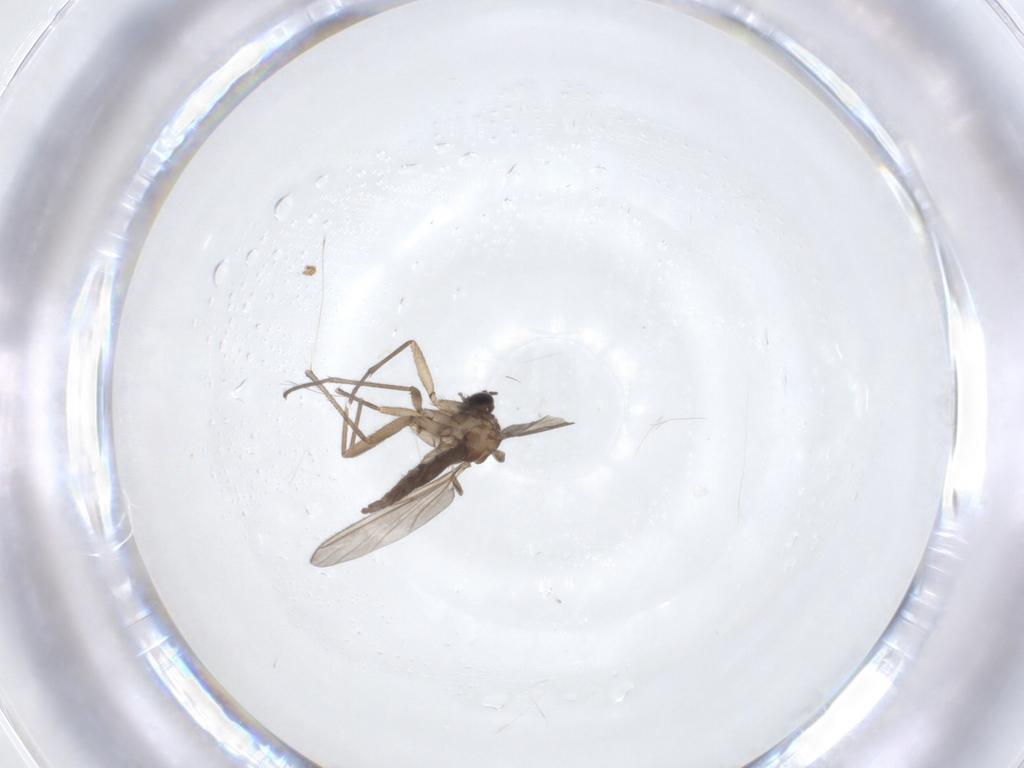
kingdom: Animalia
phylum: Arthropoda
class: Insecta
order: Diptera
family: Sciaridae
